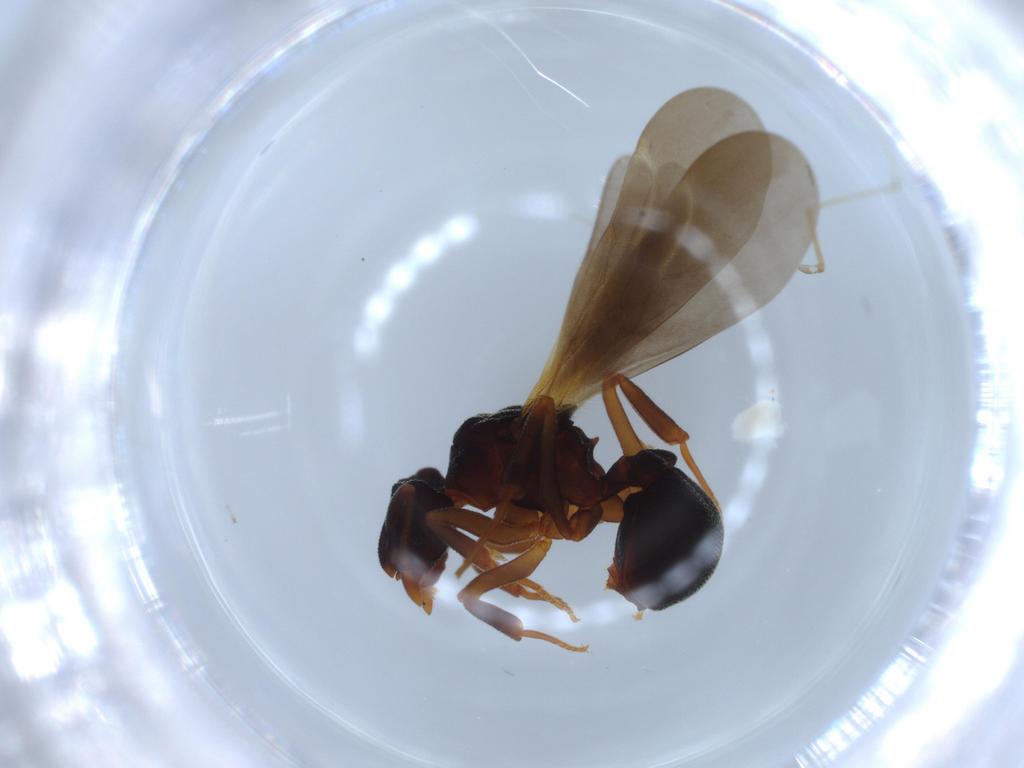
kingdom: Animalia
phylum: Arthropoda
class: Insecta
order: Hymenoptera
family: Formicidae
